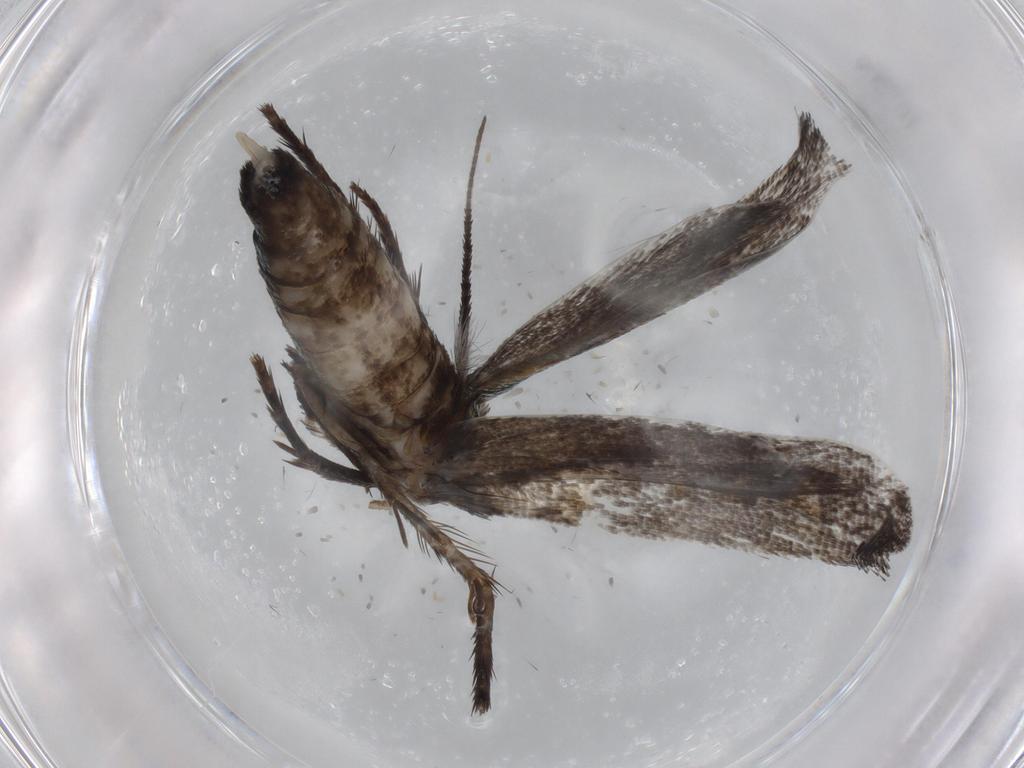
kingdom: Animalia
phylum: Arthropoda
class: Insecta
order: Lepidoptera
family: Epermeniidae
